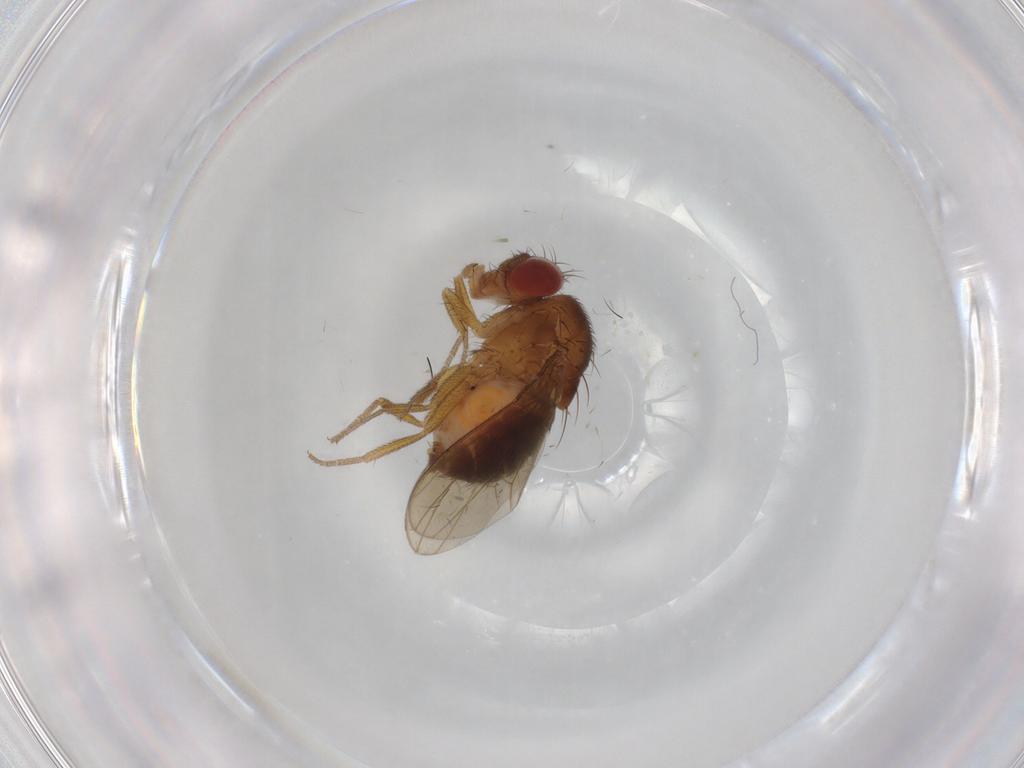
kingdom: Animalia
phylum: Arthropoda
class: Insecta
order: Diptera
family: Drosophilidae
